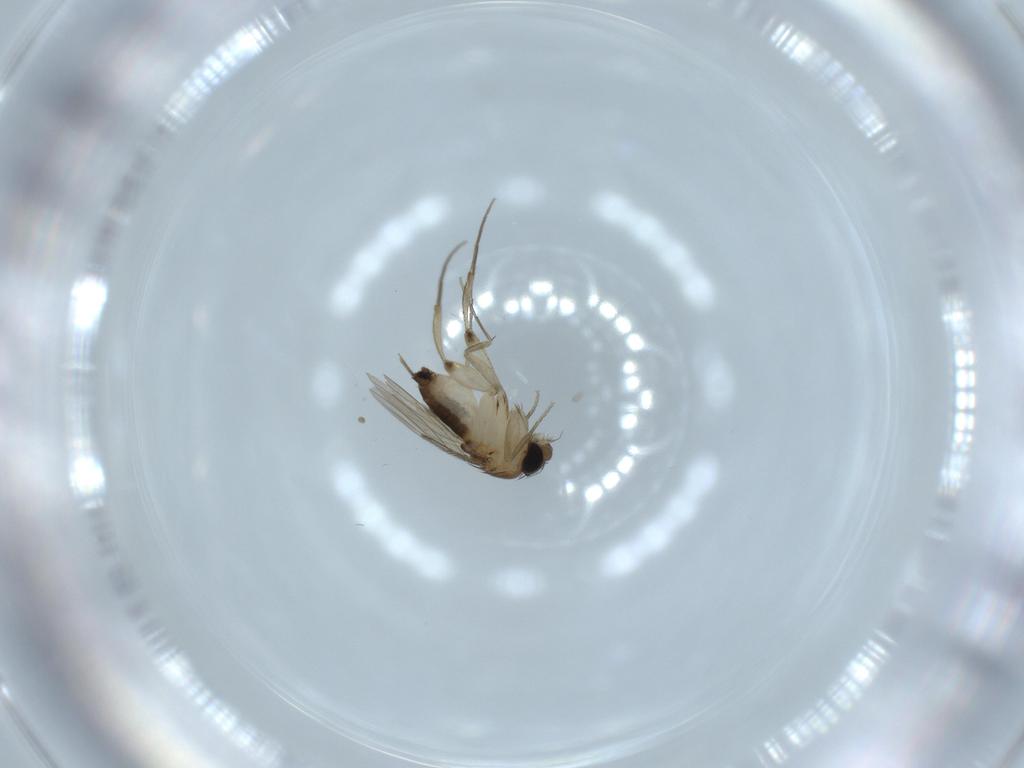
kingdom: Animalia
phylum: Arthropoda
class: Insecta
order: Diptera
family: Phoridae
